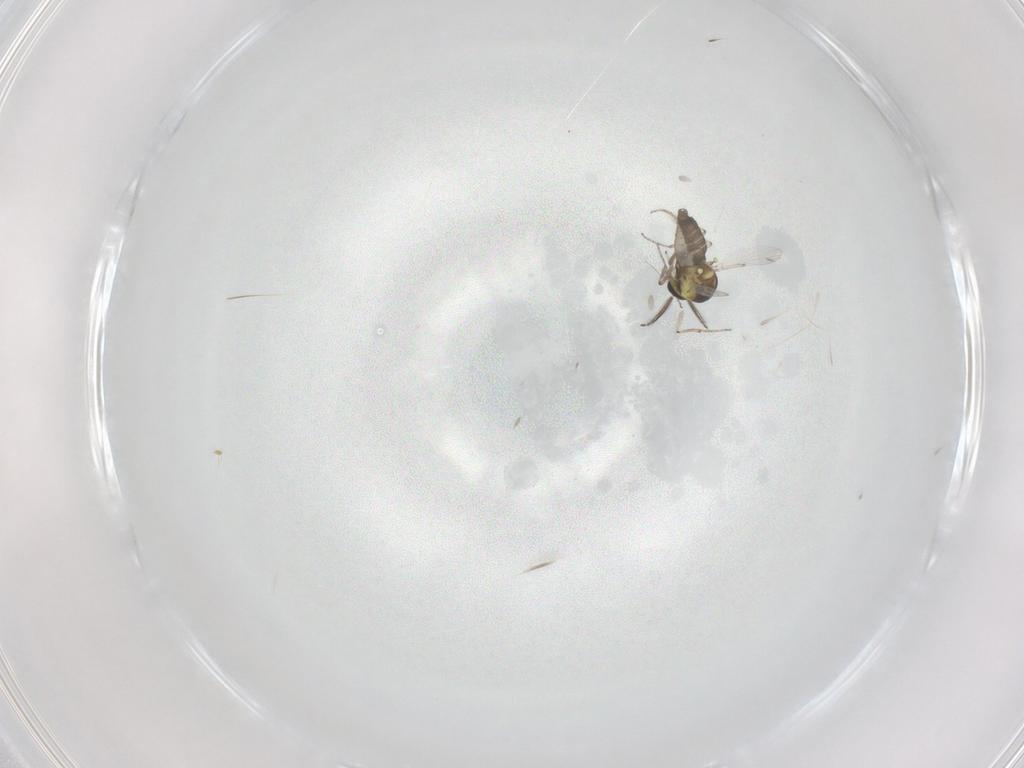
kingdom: Animalia
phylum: Arthropoda
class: Insecta
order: Diptera
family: Ceratopogonidae
